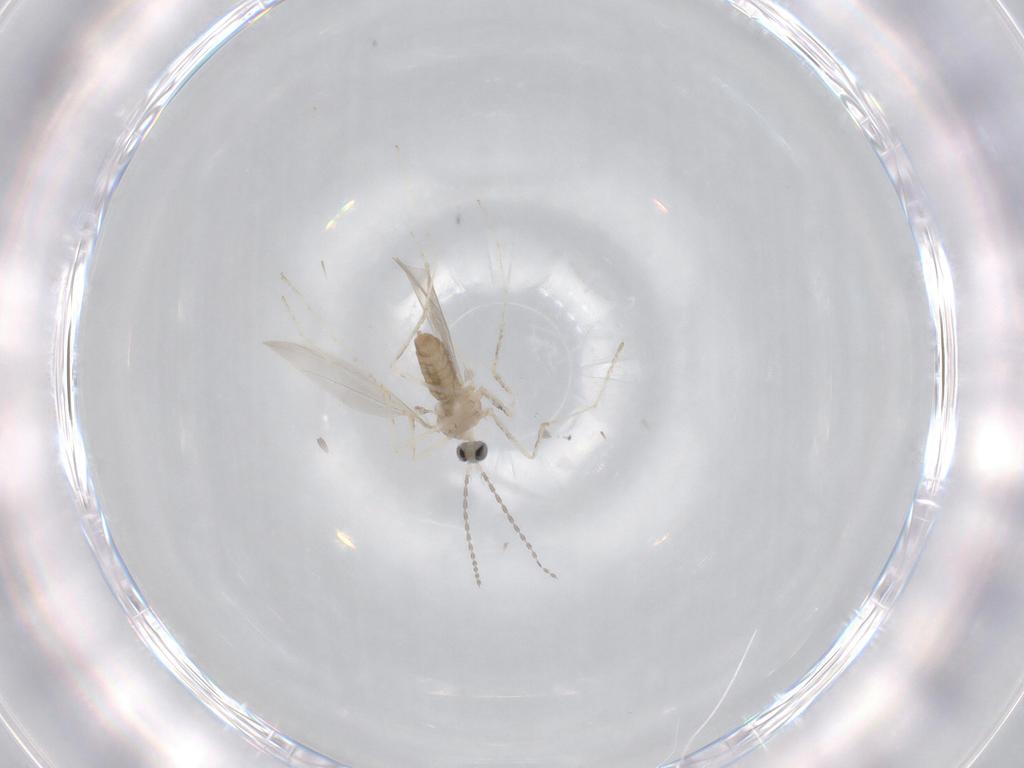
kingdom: Animalia
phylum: Arthropoda
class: Insecta
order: Diptera
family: Cecidomyiidae
